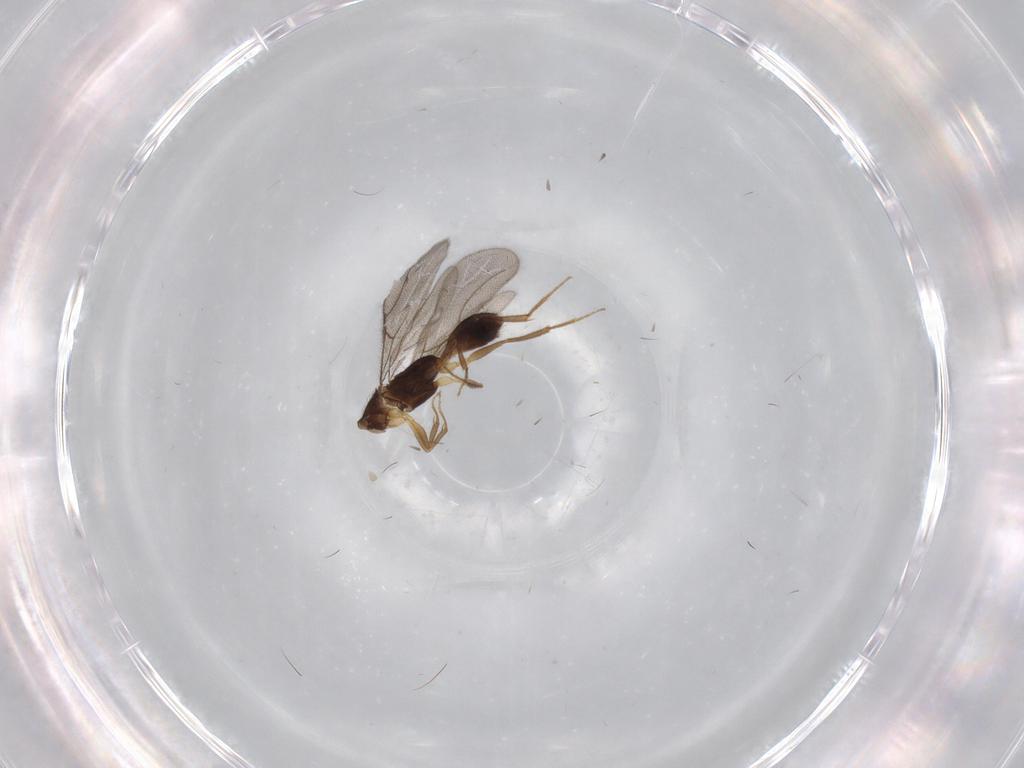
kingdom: Animalia
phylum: Arthropoda
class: Insecta
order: Hymenoptera
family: Bethylidae
